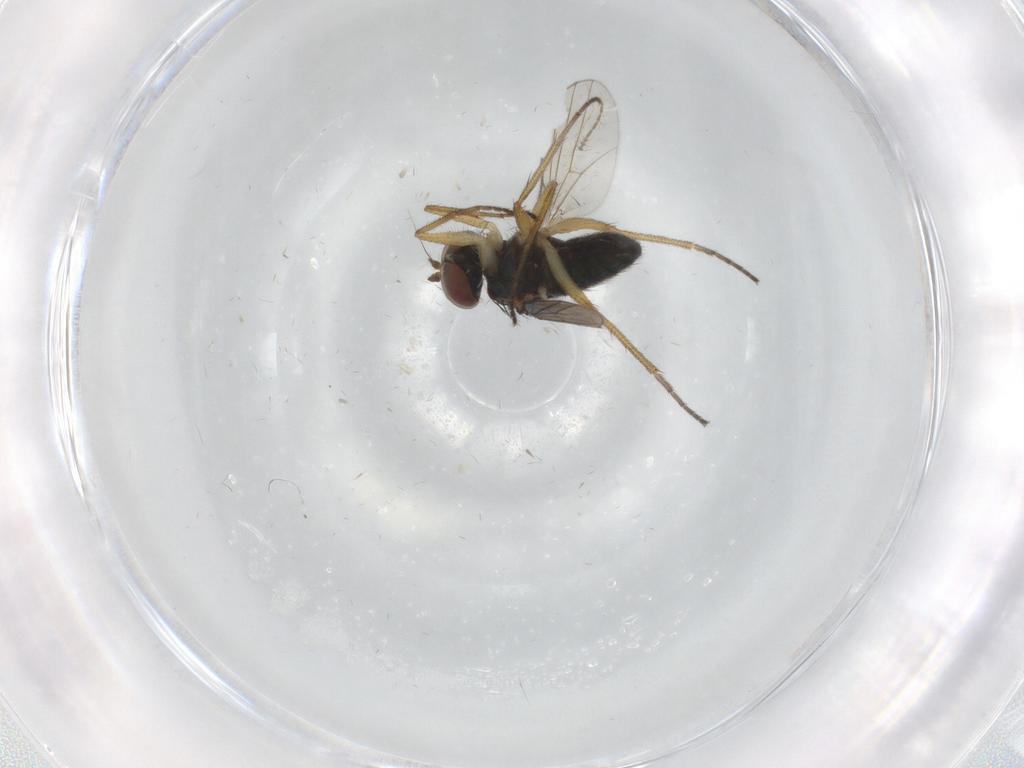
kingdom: Animalia
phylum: Arthropoda
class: Insecta
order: Diptera
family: Dolichopodidae
